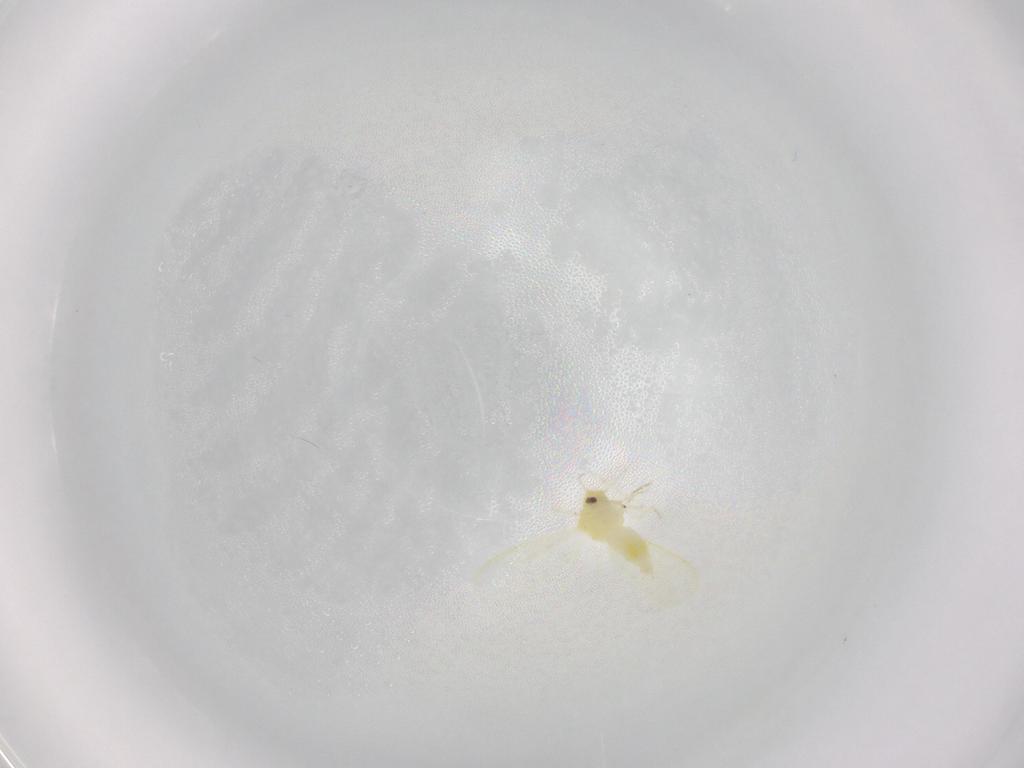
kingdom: Animalia
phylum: Arthropoda
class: Insecta
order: Hemiptera
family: Aleyrodidae
